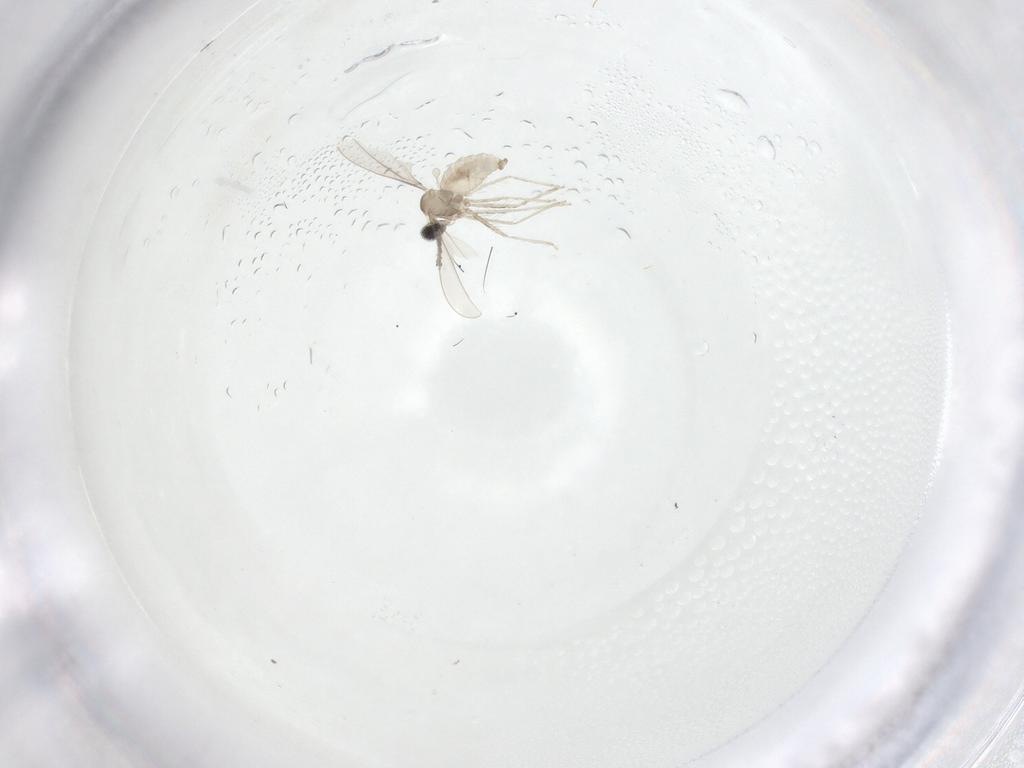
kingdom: Animalia
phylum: Arthropoda
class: Insecta
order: Diptera
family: Cecidomyiidae
